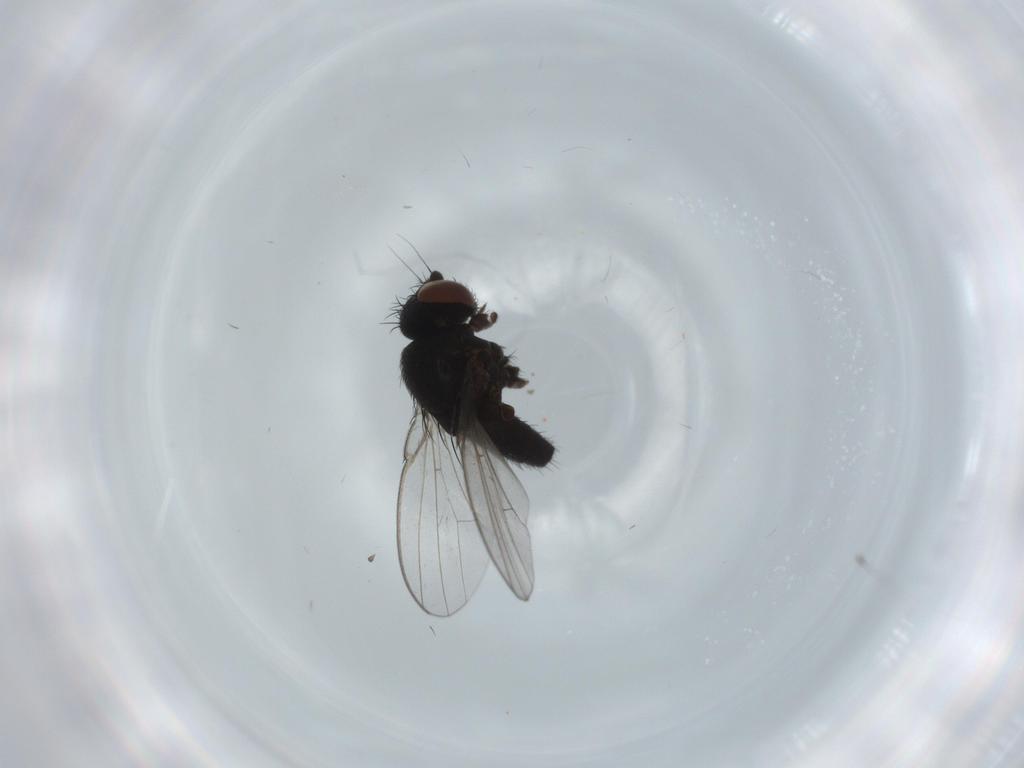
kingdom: Animalia
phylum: Arthropoda
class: Insecta
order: Diptera
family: Milichiidae
